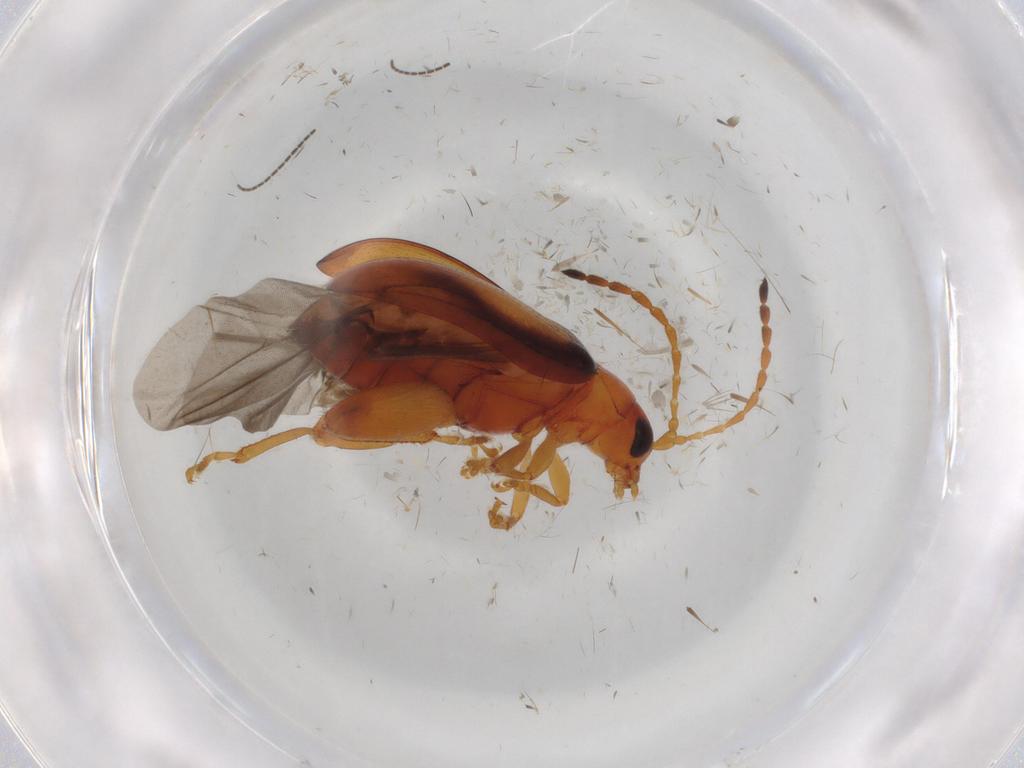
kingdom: Animalia
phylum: Arthropoda
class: Insecta
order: Coleoptera
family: Chrysomelidae
